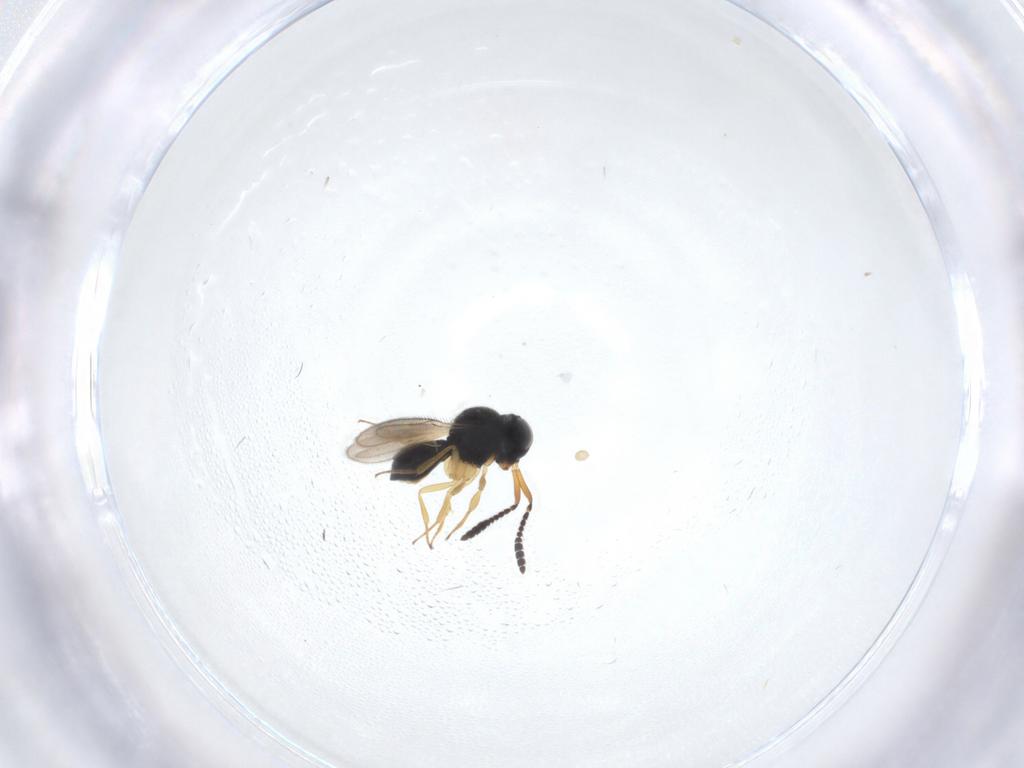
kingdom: Animalia
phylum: Arthropoda
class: Insecta
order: Hymenoptera
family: Scelionidae
